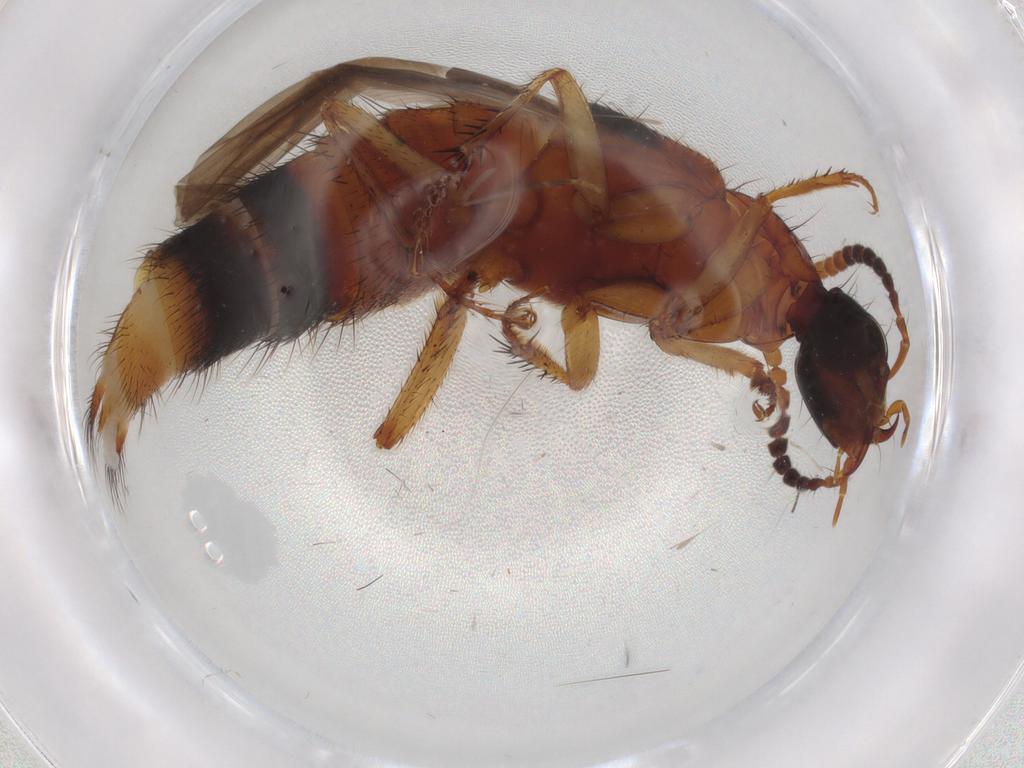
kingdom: Animalia
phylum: Arthropoda
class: Insecta
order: Coleoptera
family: Staphylinidae
